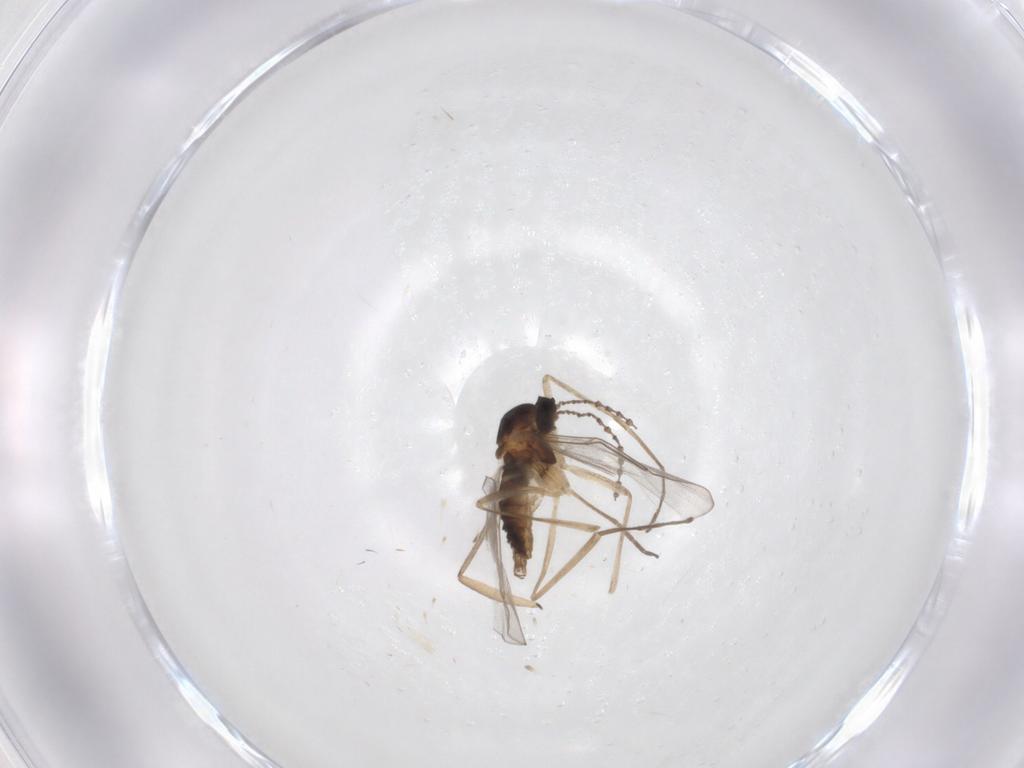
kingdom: Animalia
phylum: Arthropoda
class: Insecta
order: Diptera
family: Cecidomyiidae
